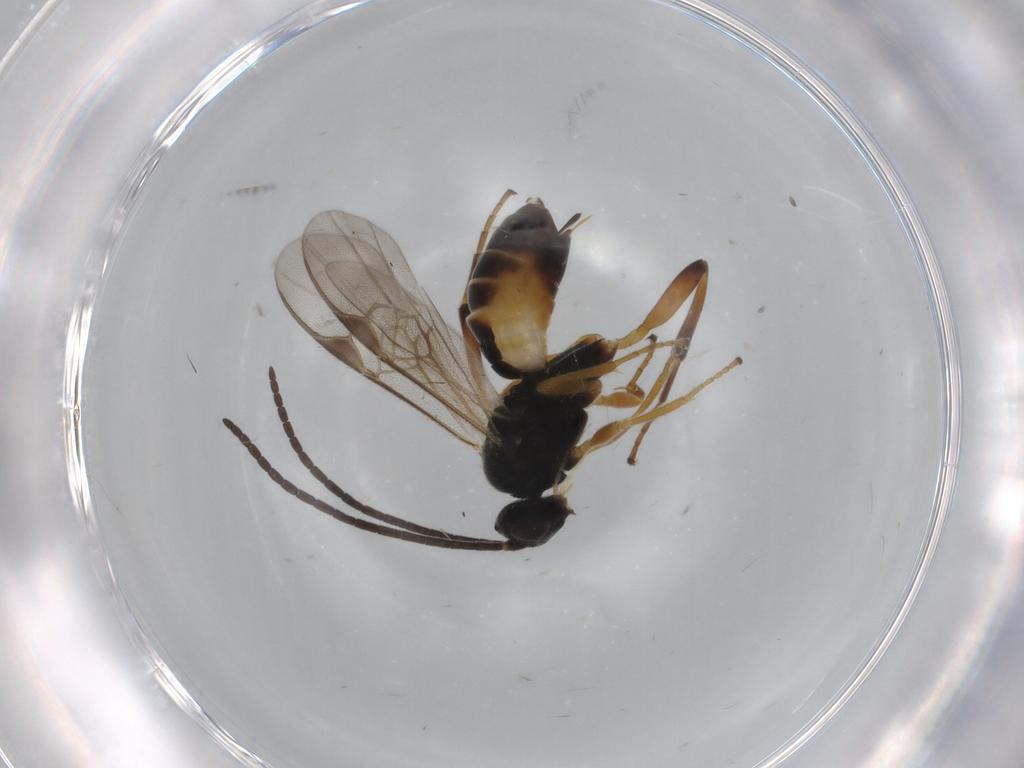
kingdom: Animalia
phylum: Arthropoda
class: Insecta
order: Hymenoptera
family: Braconidae
